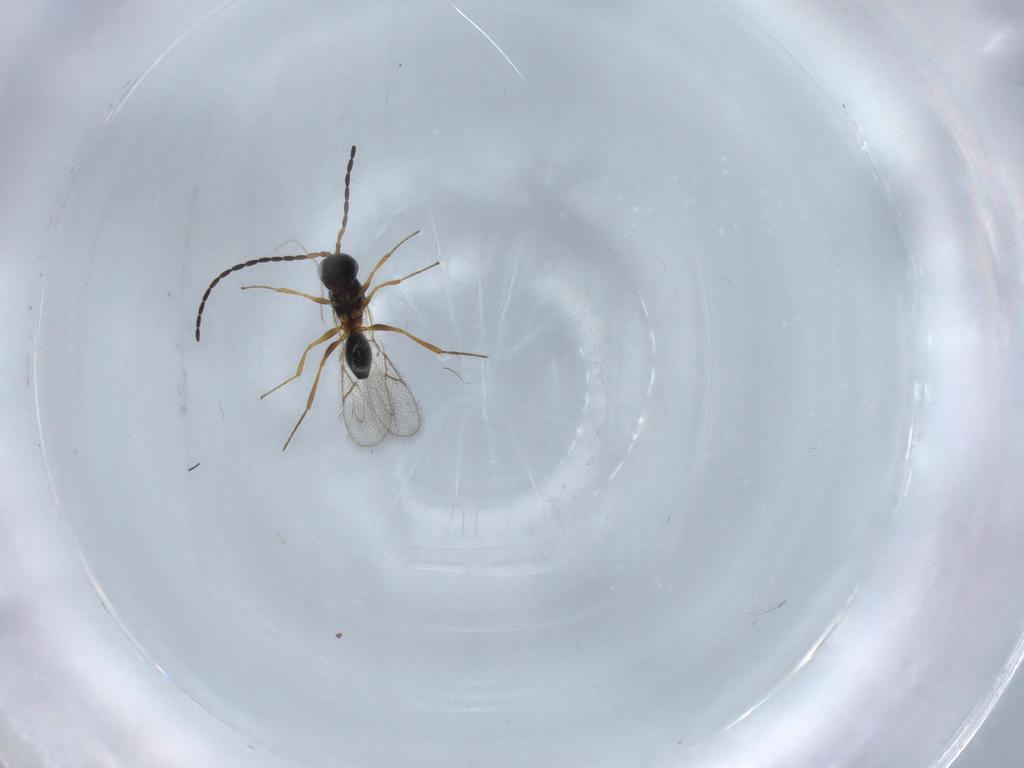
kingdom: Animalia
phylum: Arthropoda
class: Insecta
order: Hymenoptera
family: Figitidae
